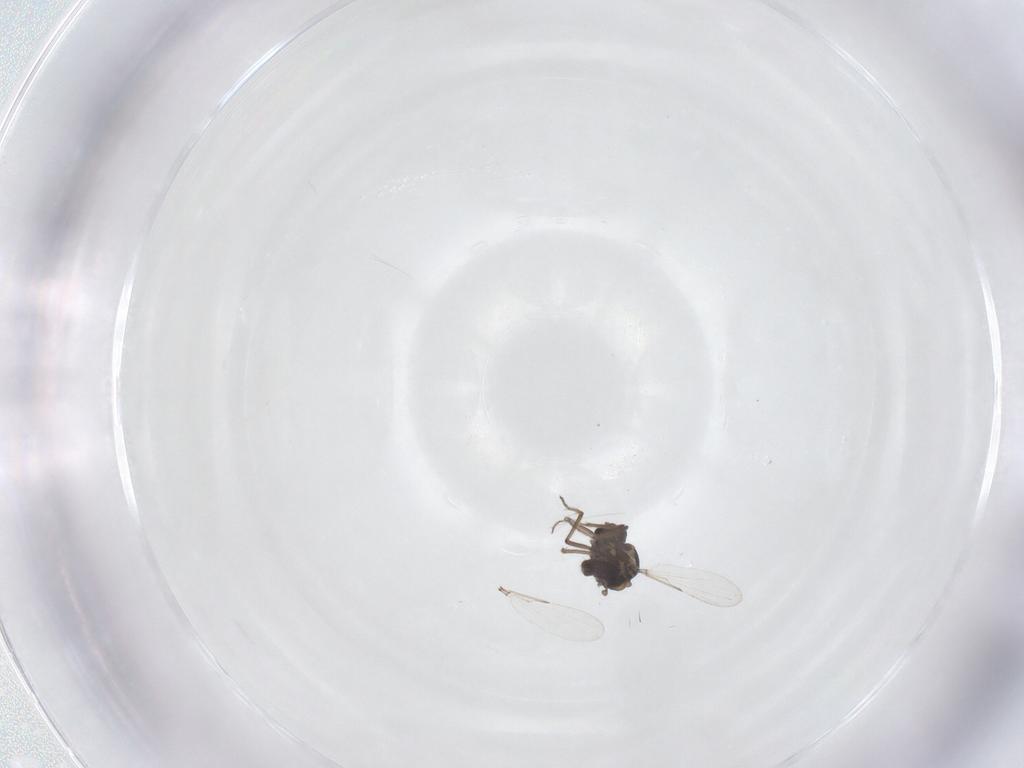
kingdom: Animalia
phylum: Arthropoda
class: Insecta
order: Diptera
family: Ceratopogonidae
